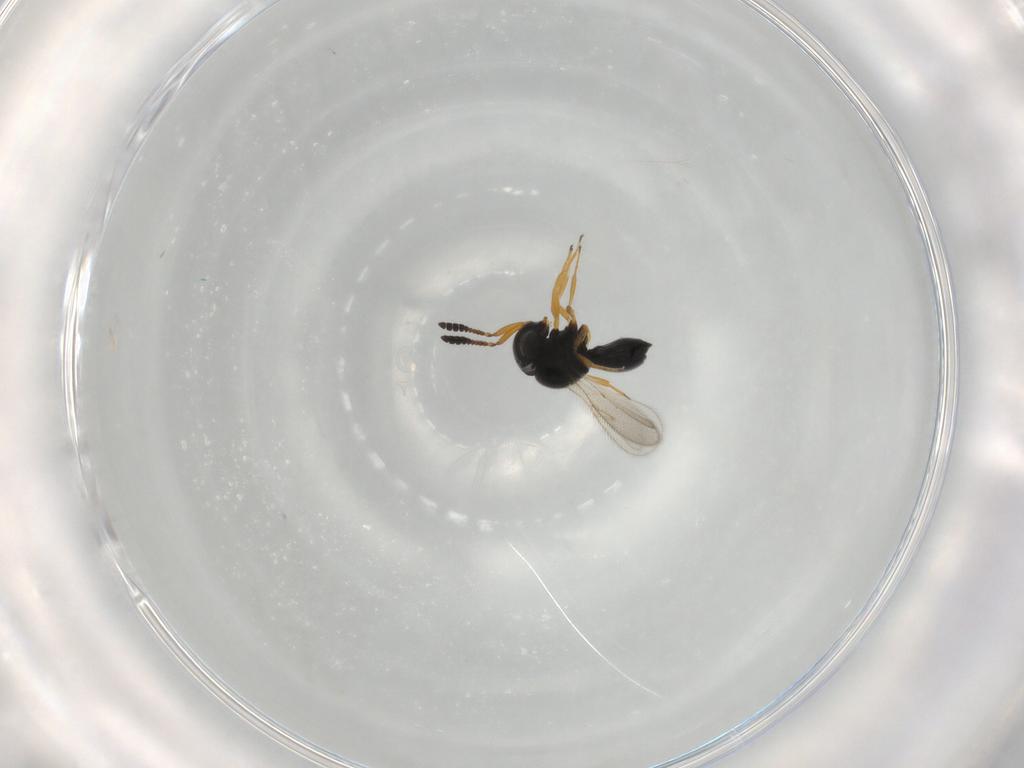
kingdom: Animalia
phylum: Arthropoda
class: Insecta
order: Hymenoptera
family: Scelionidae
